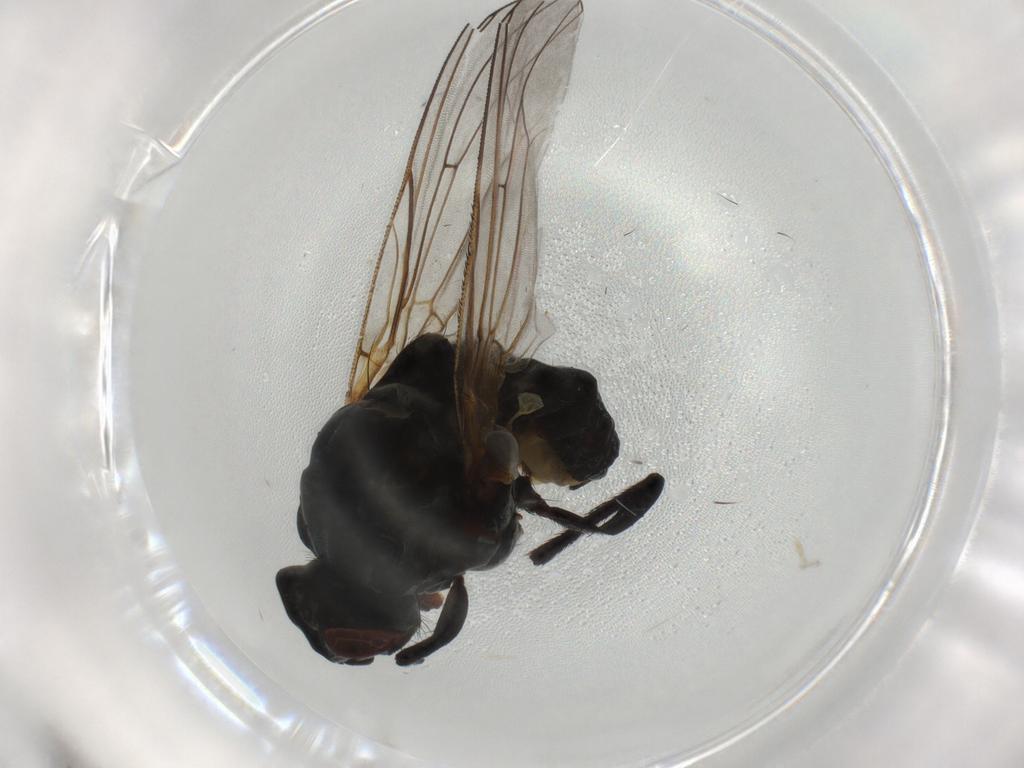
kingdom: Animalia
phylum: Arthropoda
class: Insecta
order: Diptera
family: Anthomyiidae
